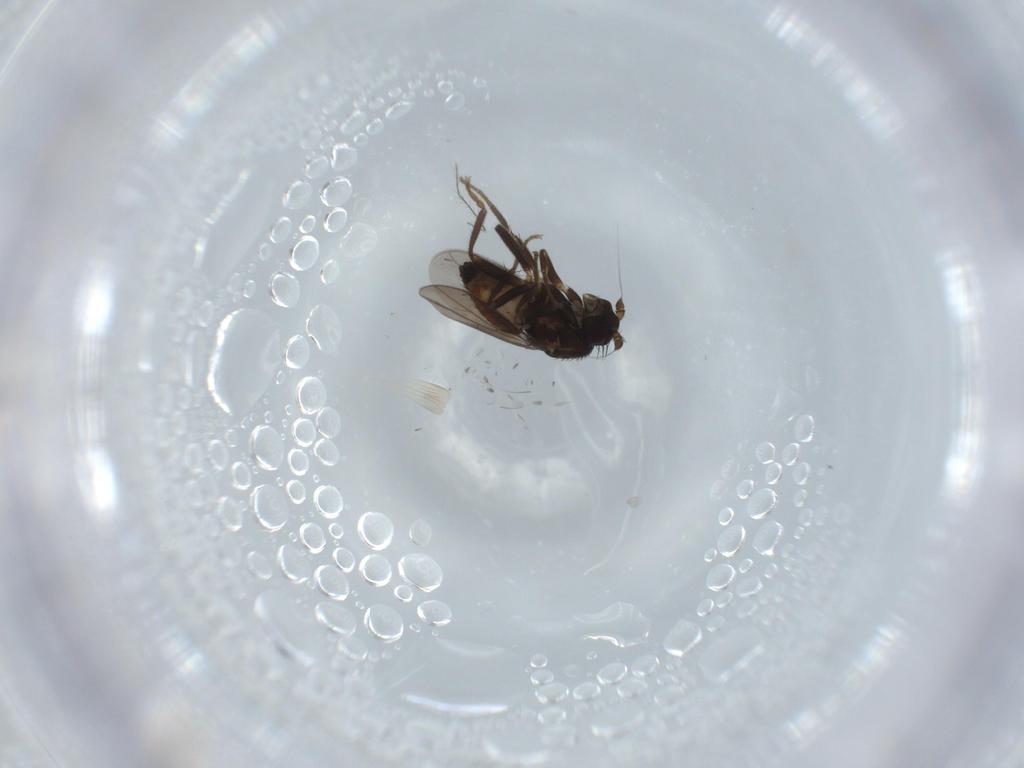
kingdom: Animalia
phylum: Arthropoda
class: Insecta
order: Diptera
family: Sphaeroceridae
